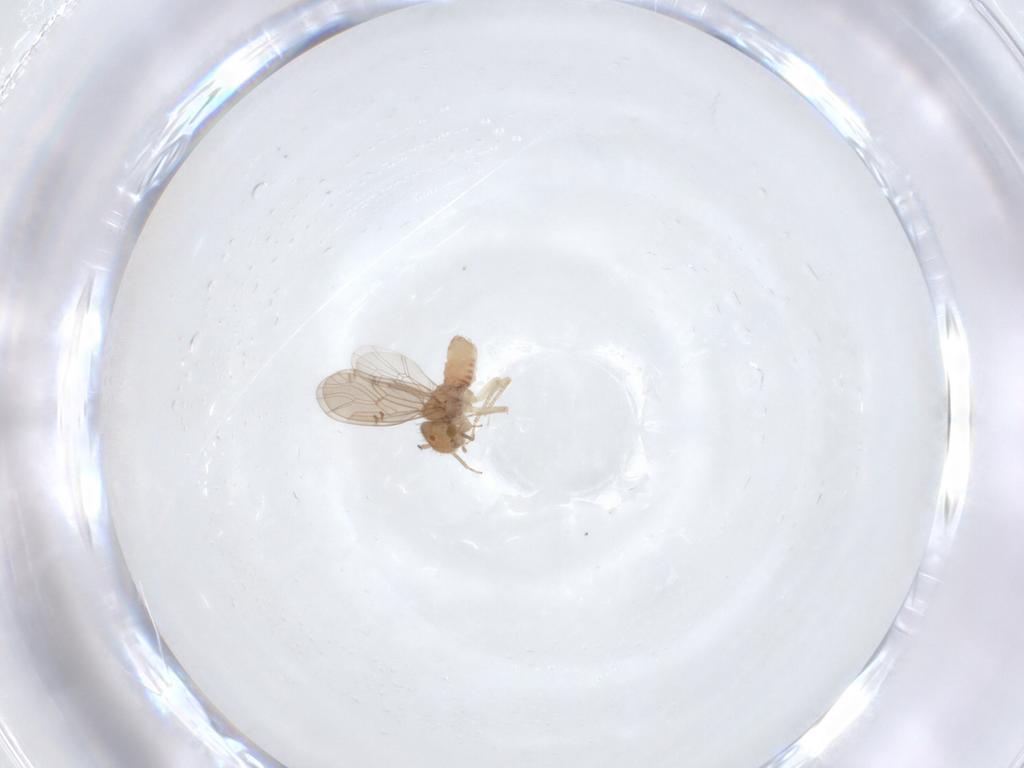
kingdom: Animalia
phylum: Arthropoda
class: Insecta
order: Psocodea
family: Ectopsocidae
